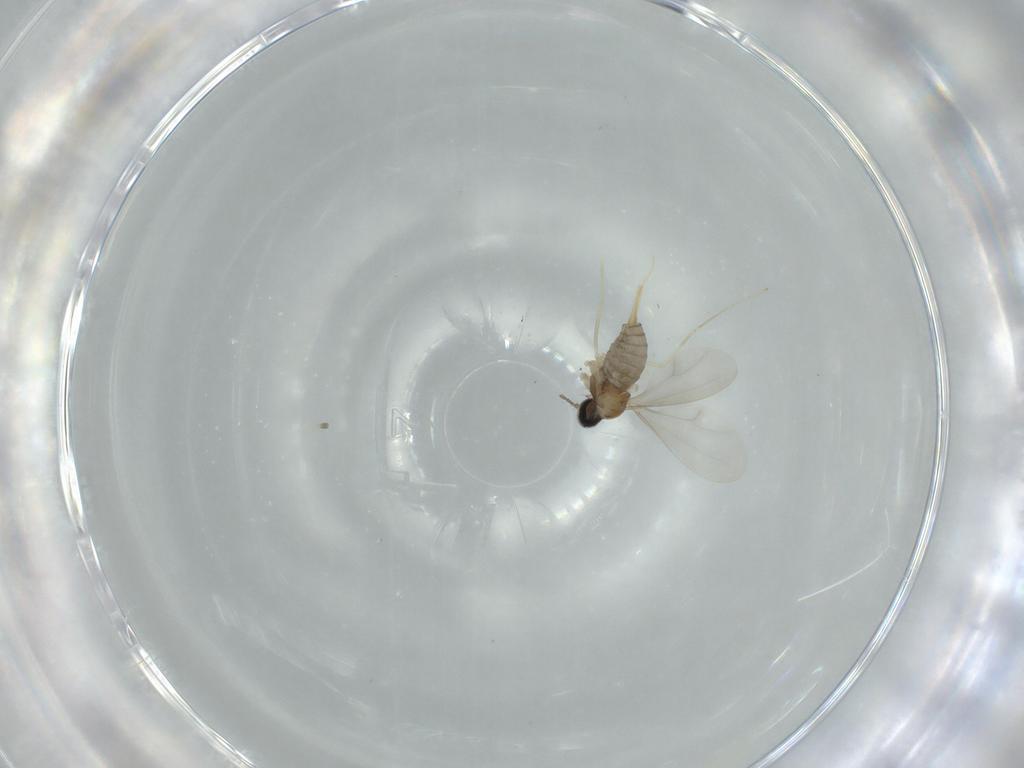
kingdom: Animalia
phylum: Arthropoda
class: Insecta
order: Diptera
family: Cecidomyiidae
